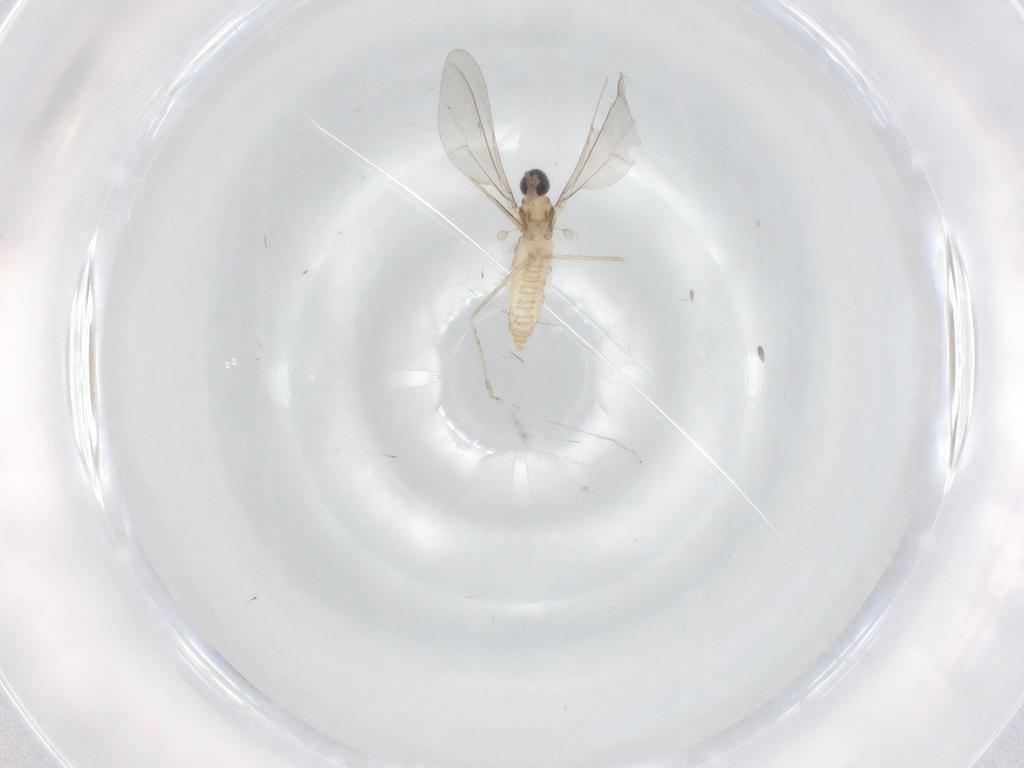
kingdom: Animalia
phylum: Arthropoda
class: Insecta
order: Diptera
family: Cecidomyiidae
